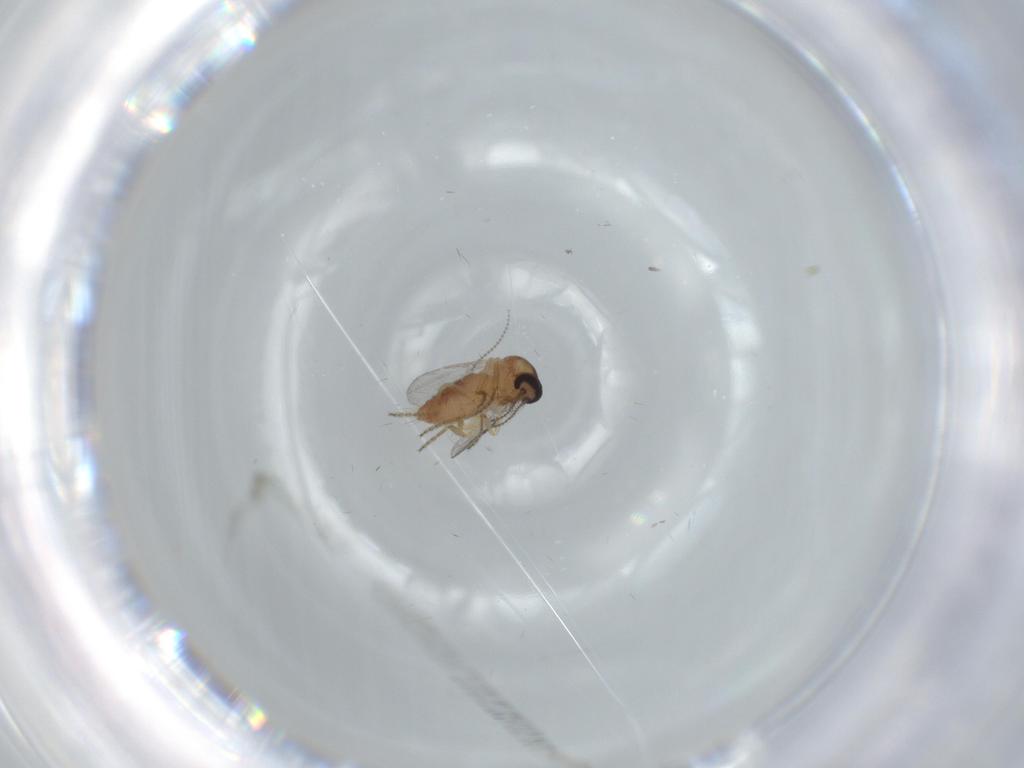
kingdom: Animalia
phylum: Arthropoda
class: Insecta
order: Diptera
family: Ceratopogonidae
